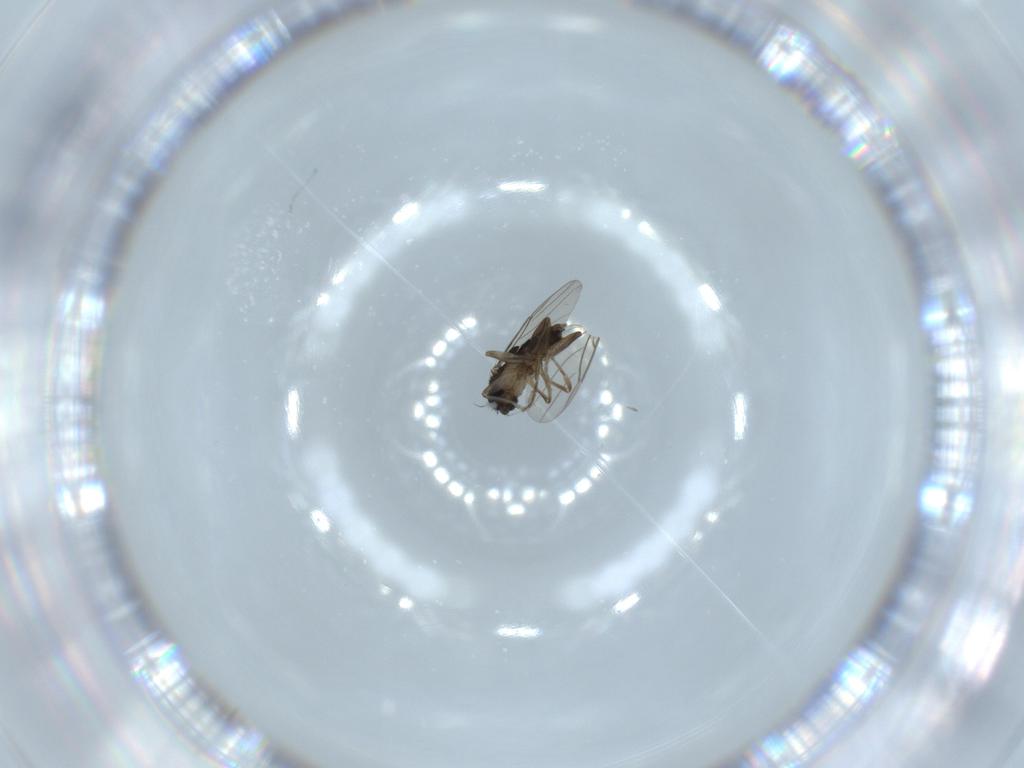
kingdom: Animalia
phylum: Arthropoda
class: Insecta
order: Diptera
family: Phoridae
